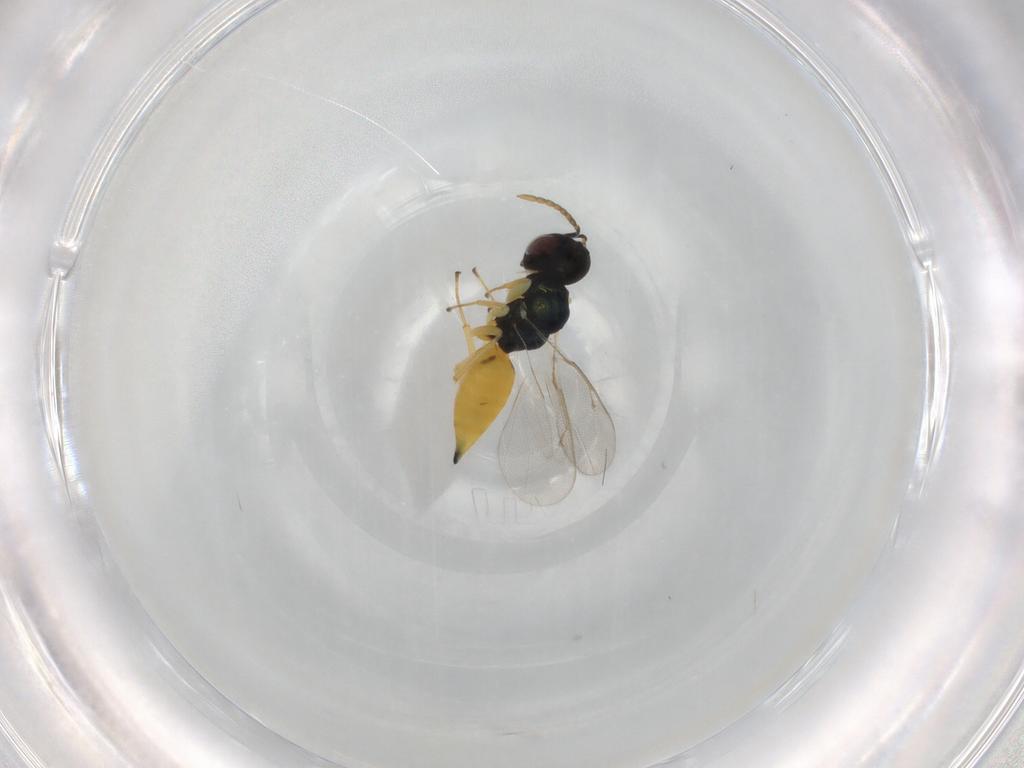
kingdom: Animalia
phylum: Arthropoda
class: Insecta
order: Hymenoptera
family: Pteromalidae
